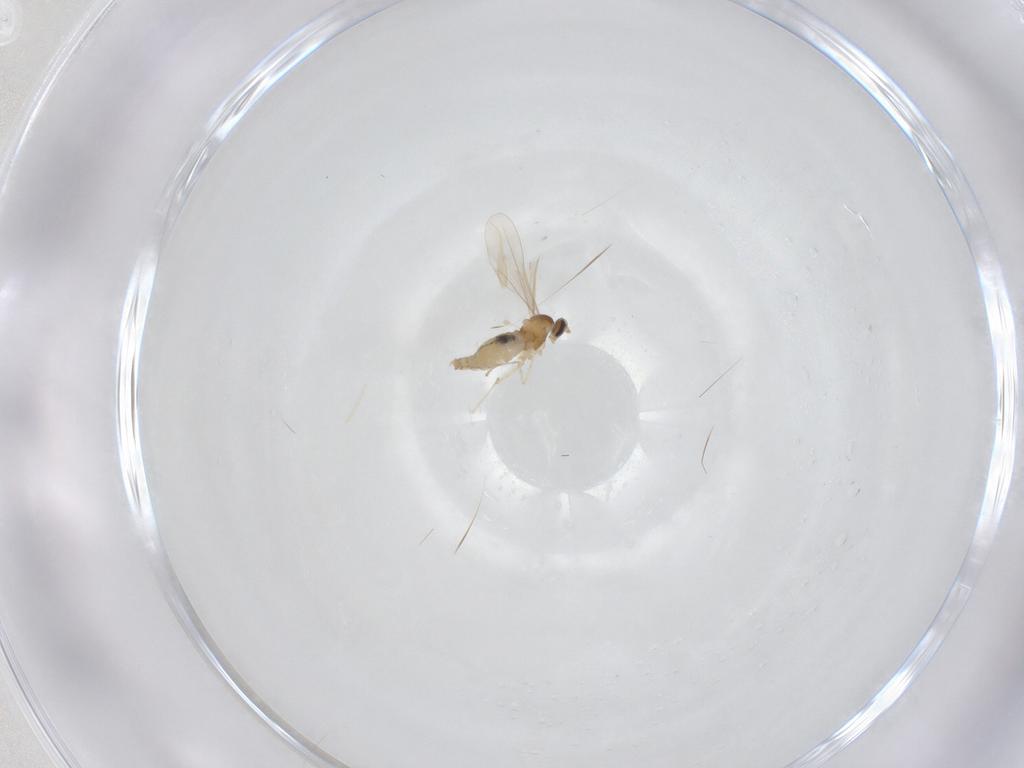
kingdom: Animalia
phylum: Arthropoda
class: Insecta
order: Diptera
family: Cecidomyiidae
